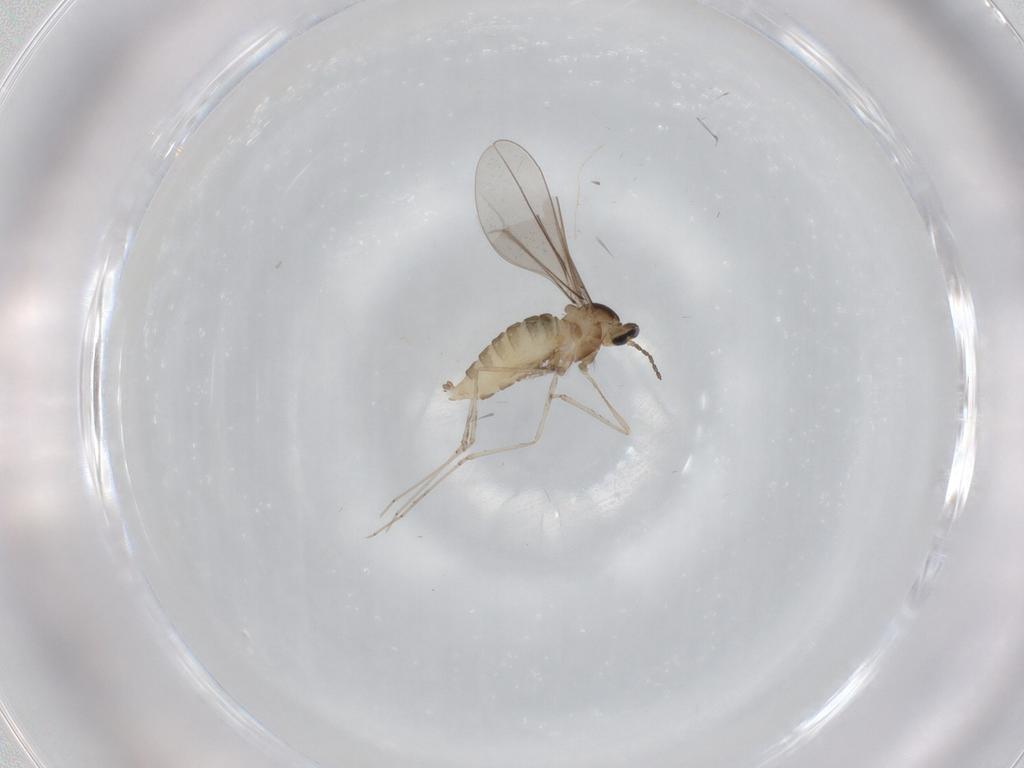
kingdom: Animalia
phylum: Arthropoda
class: Insecta
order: Diptera
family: Cecidomyiidae
